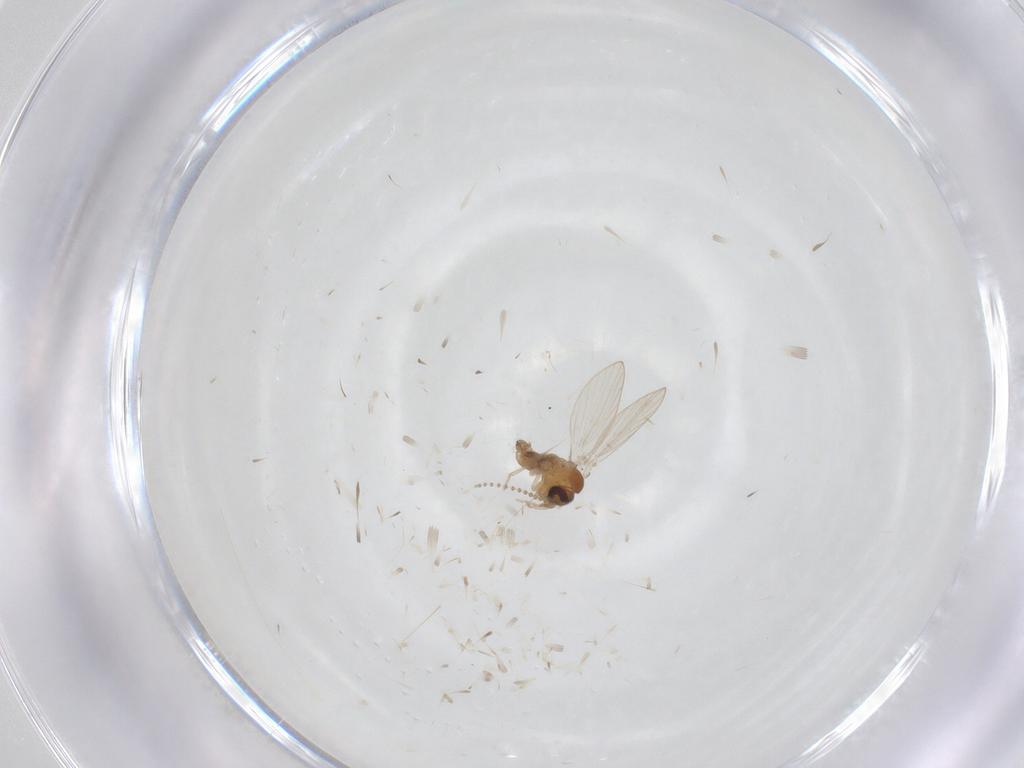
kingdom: Animalia
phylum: Arthropoda
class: Insecta
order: Diptera
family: Psychodidae
